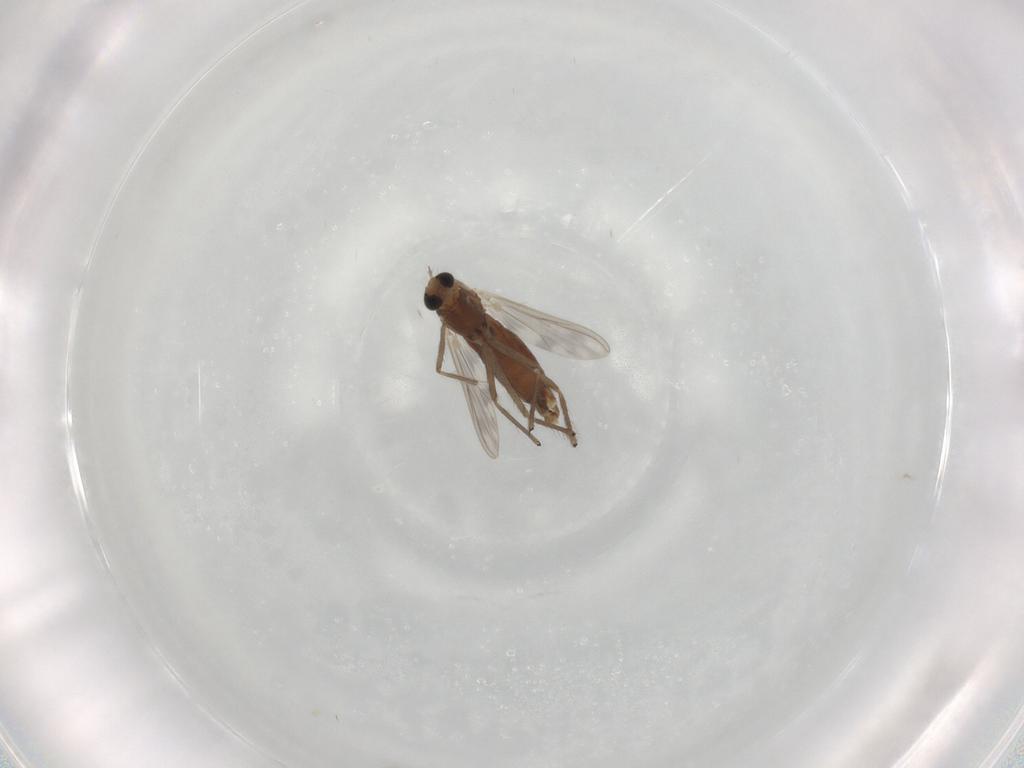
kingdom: Animalia
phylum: Arthropoda
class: Insecta
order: Diptera
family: Chironomidae
